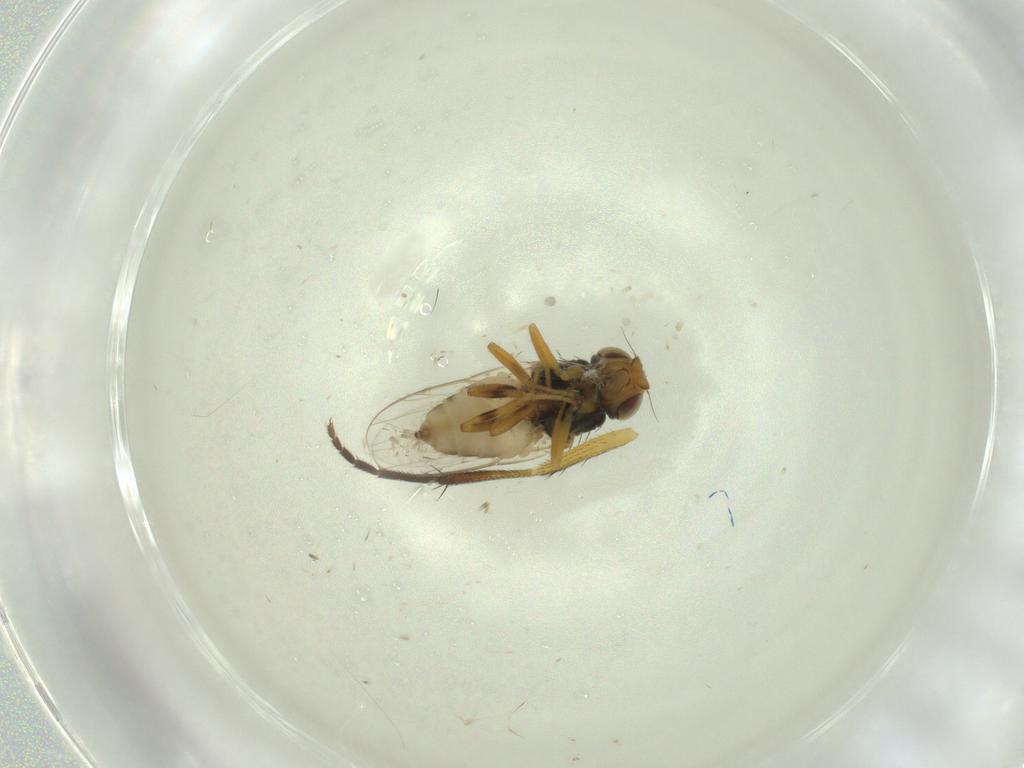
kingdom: Animalia
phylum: Arthropoda
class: Insecta
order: Diptera
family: Chloropidae
